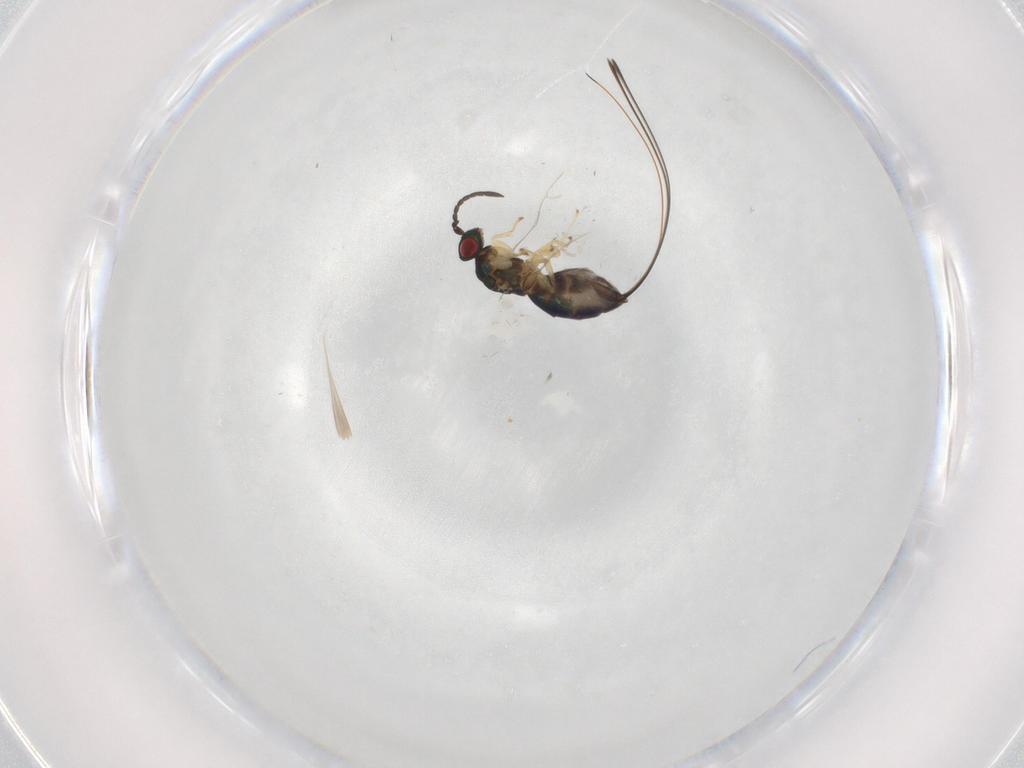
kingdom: Animalia
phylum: Arthropoda
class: Insecta
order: Hymenoptera
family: Pteromalidae
